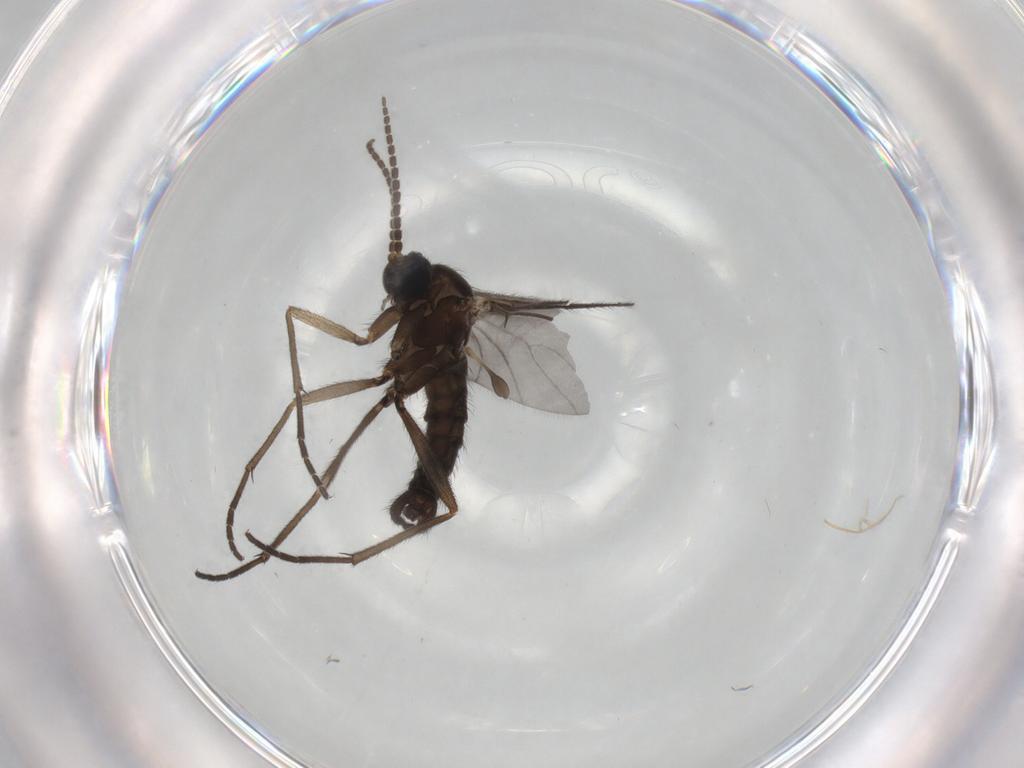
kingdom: Animalia
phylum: Arthropoda
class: Insecta
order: Diptera
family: Sciaridae
